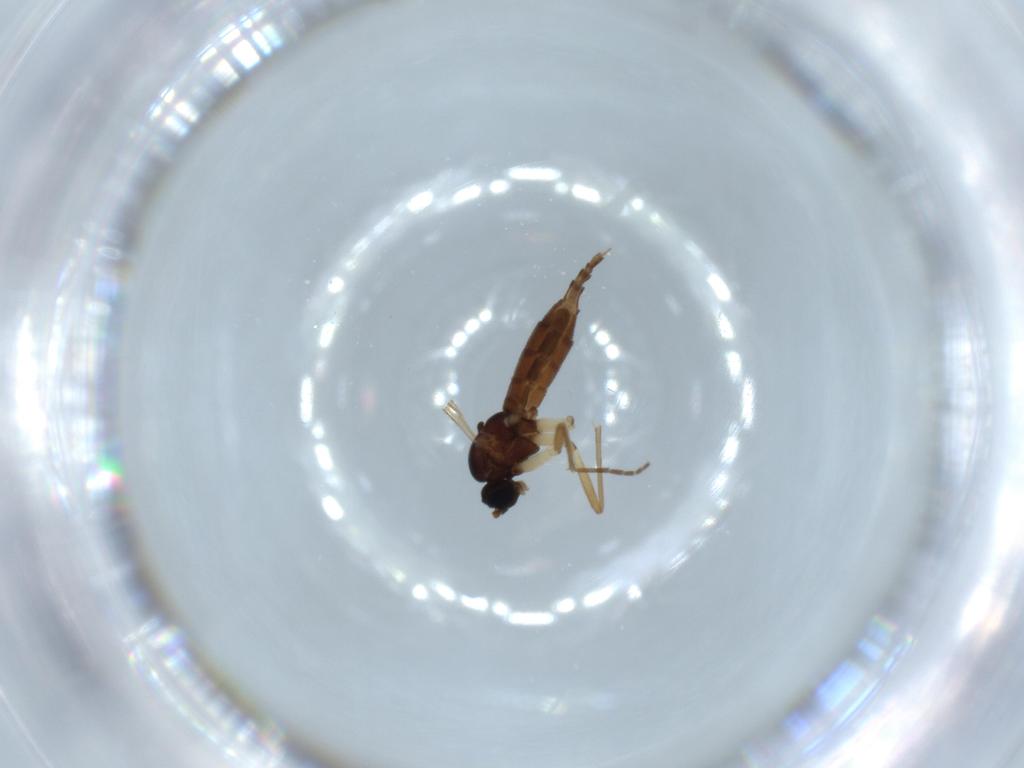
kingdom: Animalia
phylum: Arthropoda
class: Insecta
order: Diptera
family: Sciaridae
